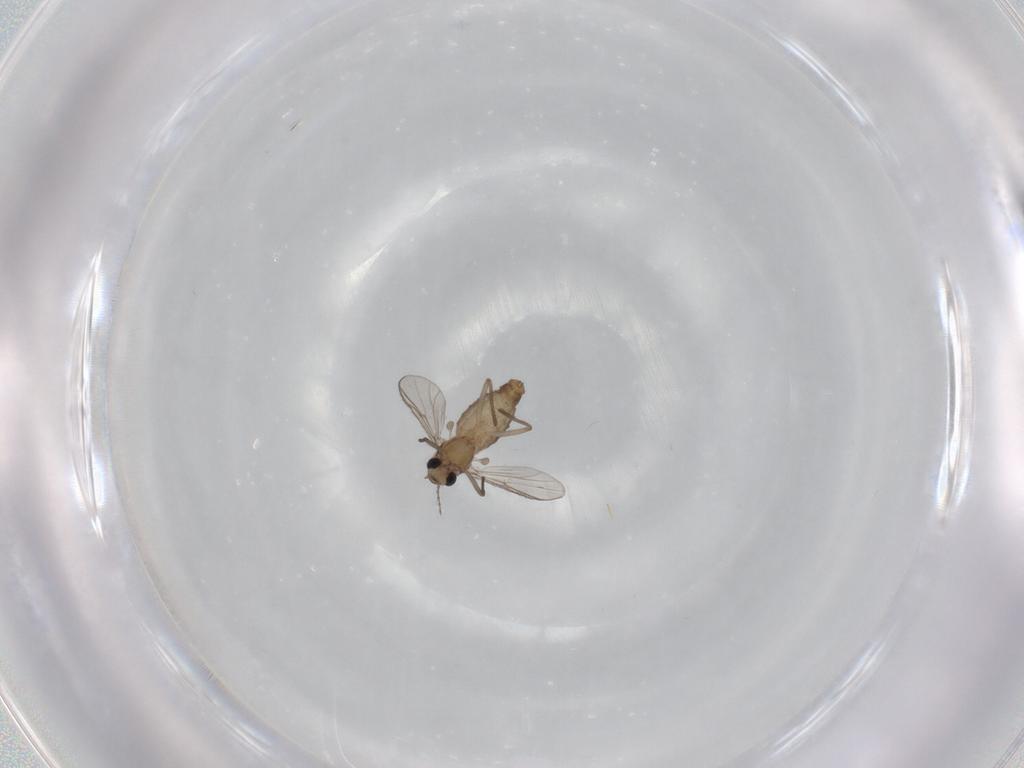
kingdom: Animalia
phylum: Arthropoda
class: Insecta
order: Diptera
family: Chironomidae
